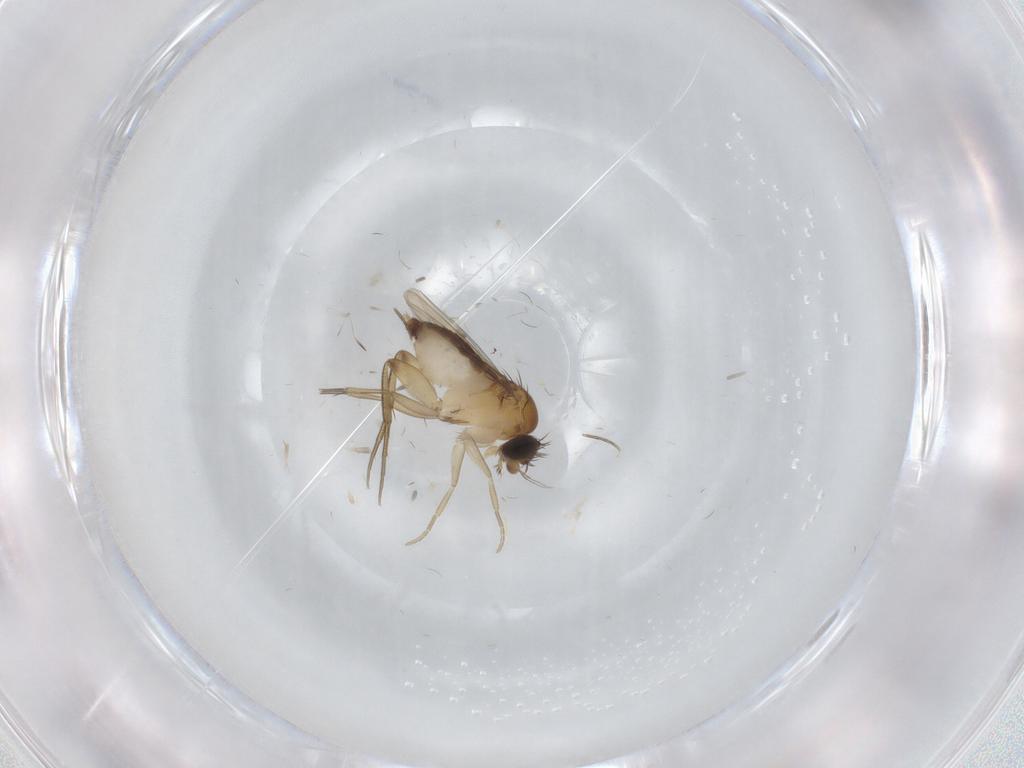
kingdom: Animalia
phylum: Arthropoda
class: Insecta
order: Diptera
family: Phoridae
